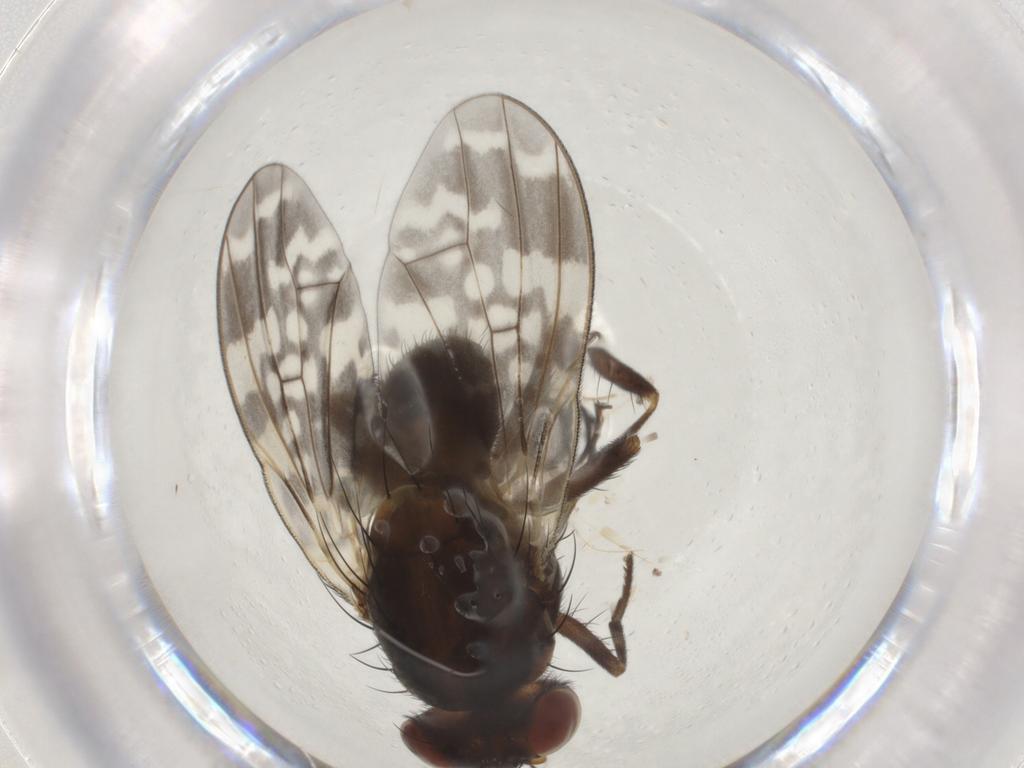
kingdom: Animalia
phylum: Arthropoda
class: Insecta
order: Diptera
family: Lauxaniidae
